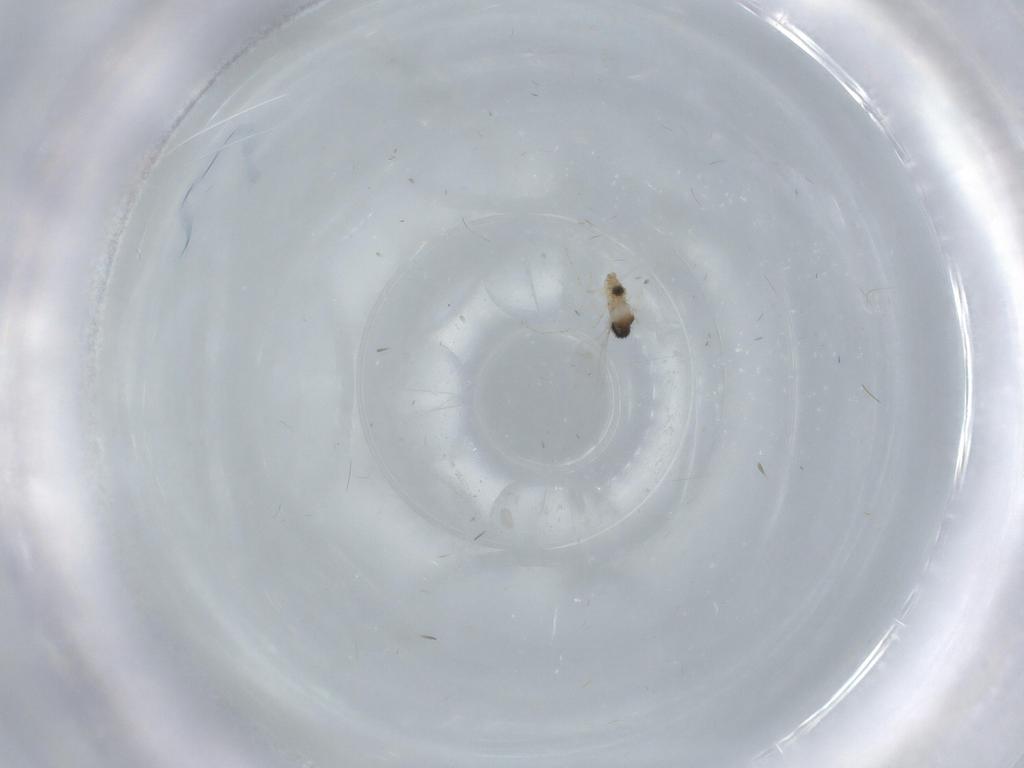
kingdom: Animalia
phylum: Arthropoda
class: Insecta
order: Diptera
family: Cecidomyiidae
